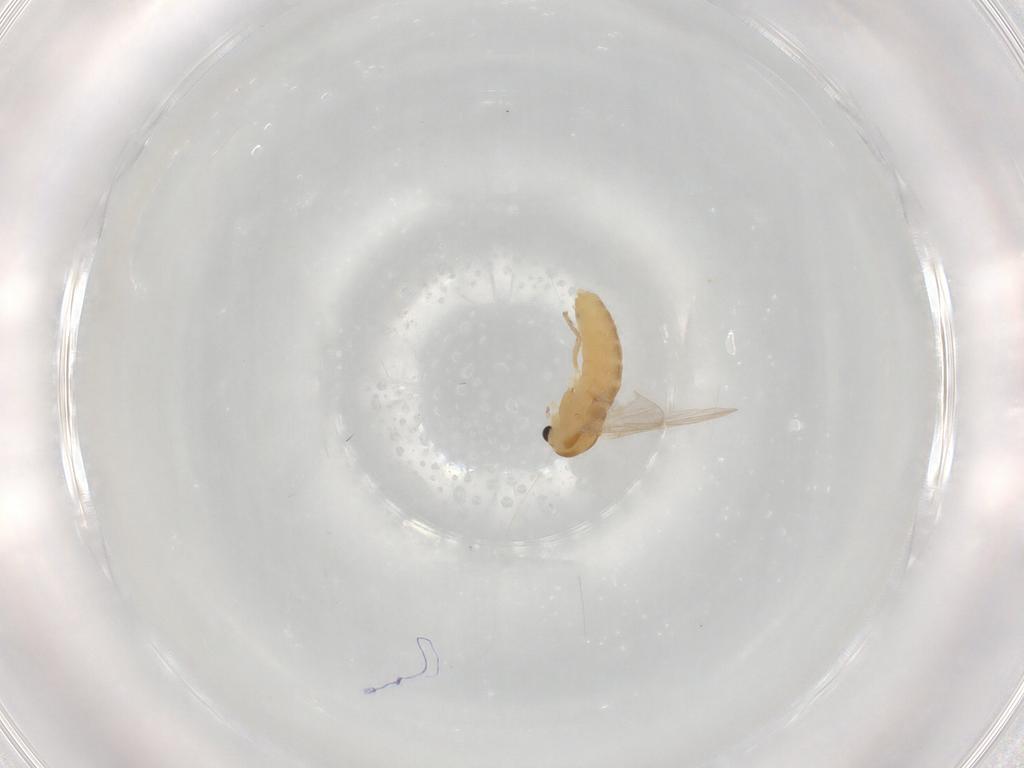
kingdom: Animalia
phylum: Arthropoda
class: Insecta
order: Diptera
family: Chironomidae
